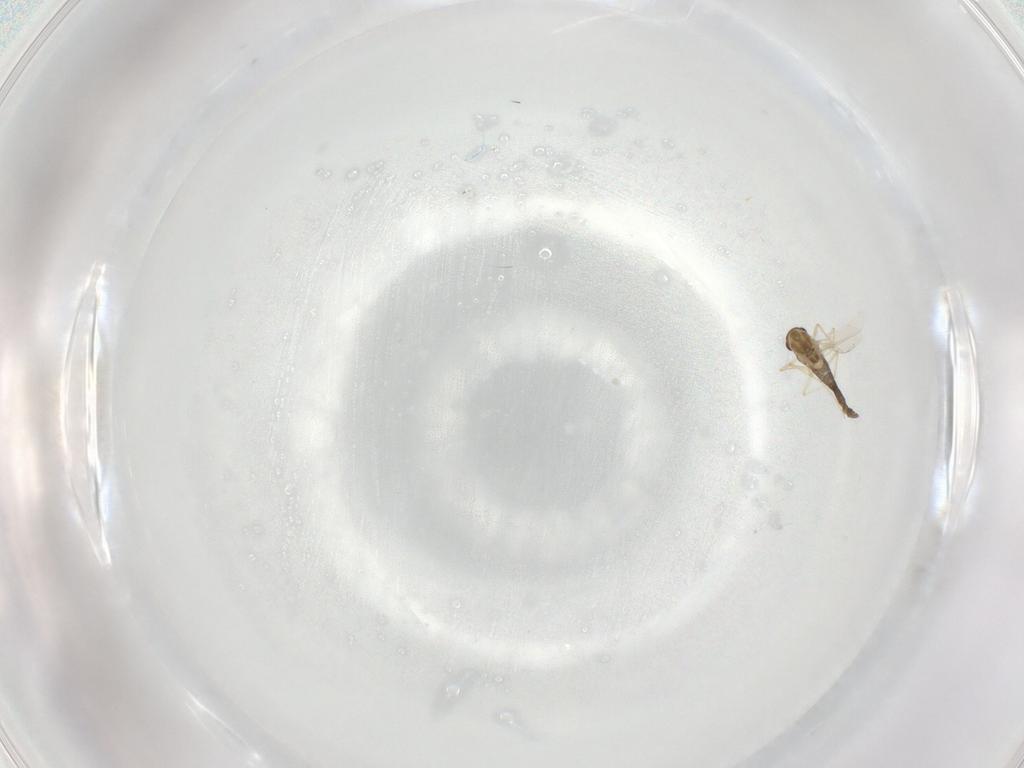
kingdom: Animalia
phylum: Arthropoda
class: Insecta
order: Diptera
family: Chironomidae
